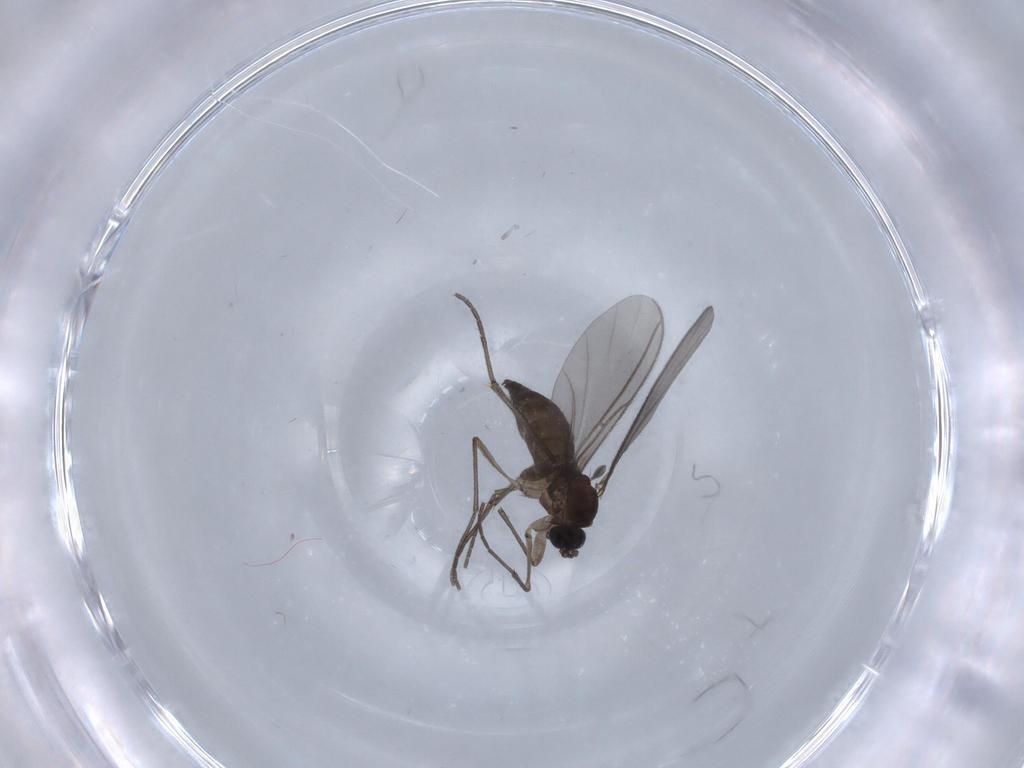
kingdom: Animalia
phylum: Arthropoda
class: Insecta
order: Diptera
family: Sciaridae
